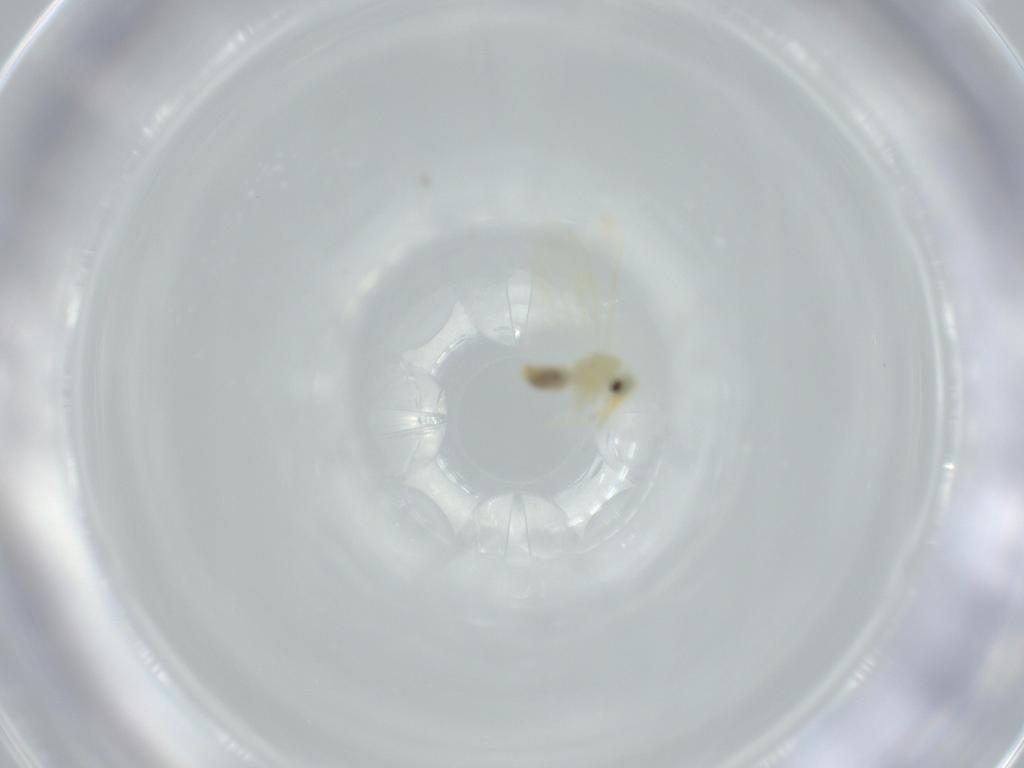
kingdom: Animalia
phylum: Arthropoda
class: Insecta
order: Hemiptera
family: Aleyrodidae
